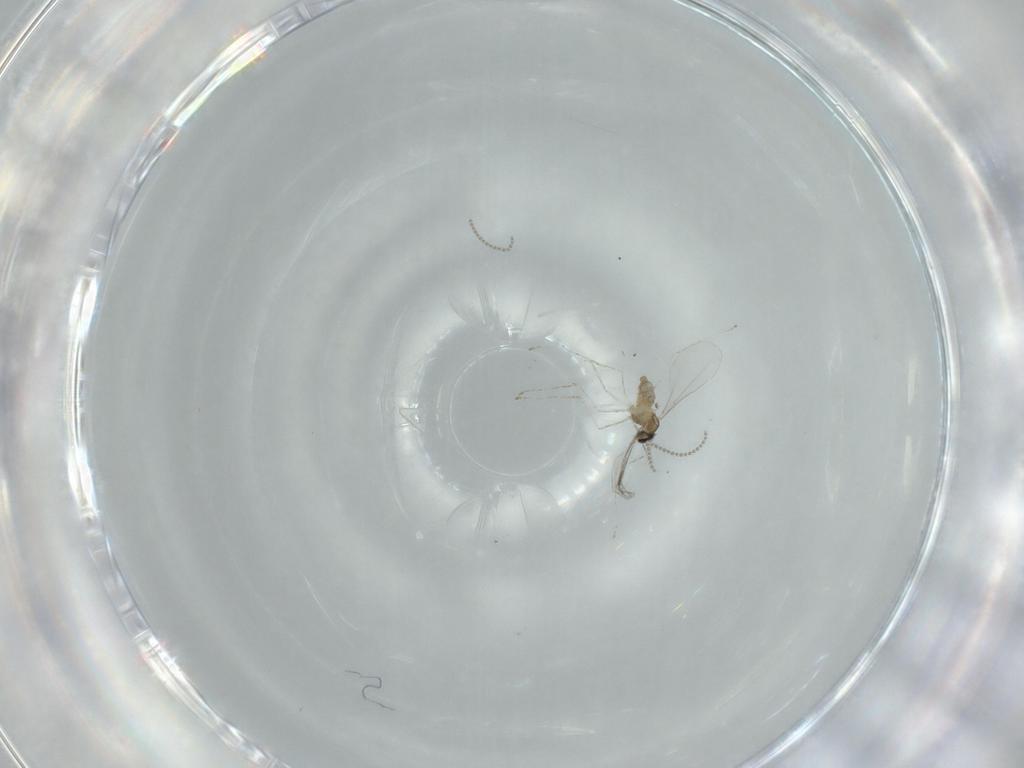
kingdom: Animalia
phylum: Arthropoda
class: Insecta
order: Diptera
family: Cecidomyiidae
